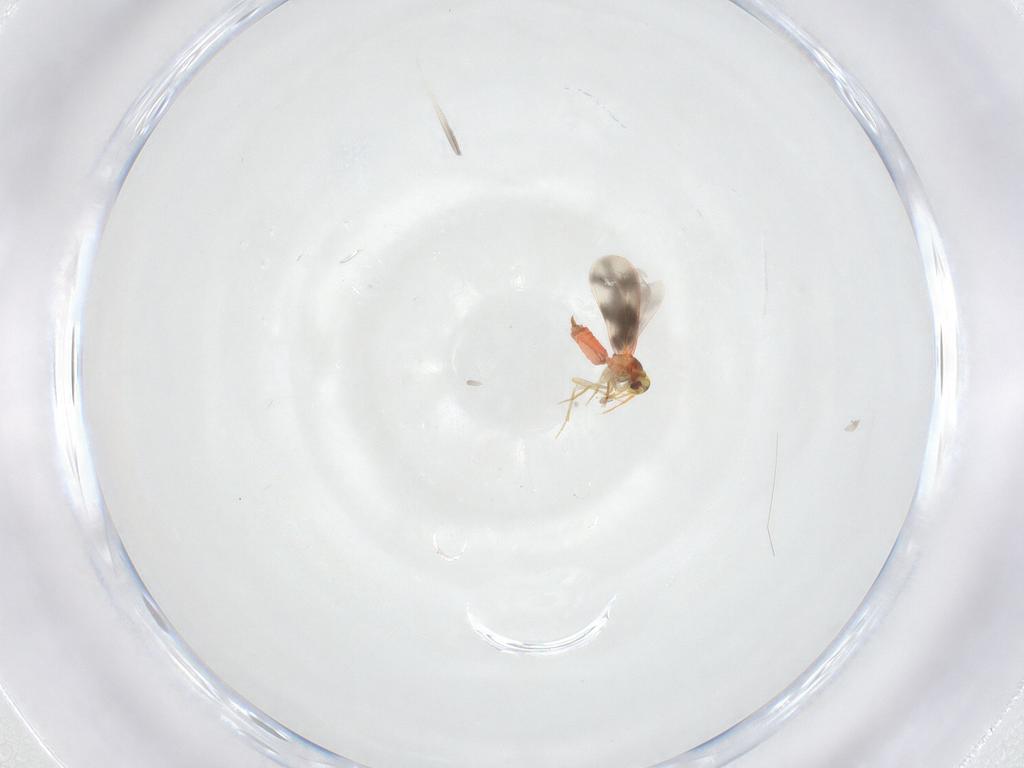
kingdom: Animalia
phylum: Arthropoda
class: Insecta
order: Hemiptera
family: Aleyrodidae
